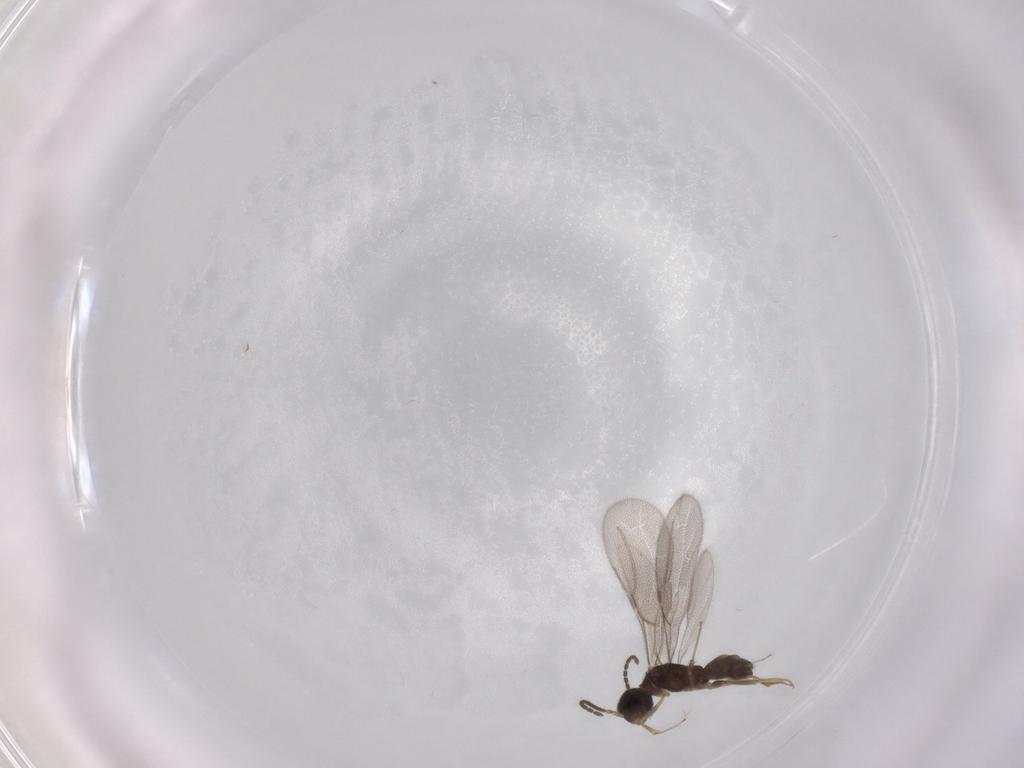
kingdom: Animalia
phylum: Arthropoda
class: Insecta
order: Hymenoptera
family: Bethylidae
